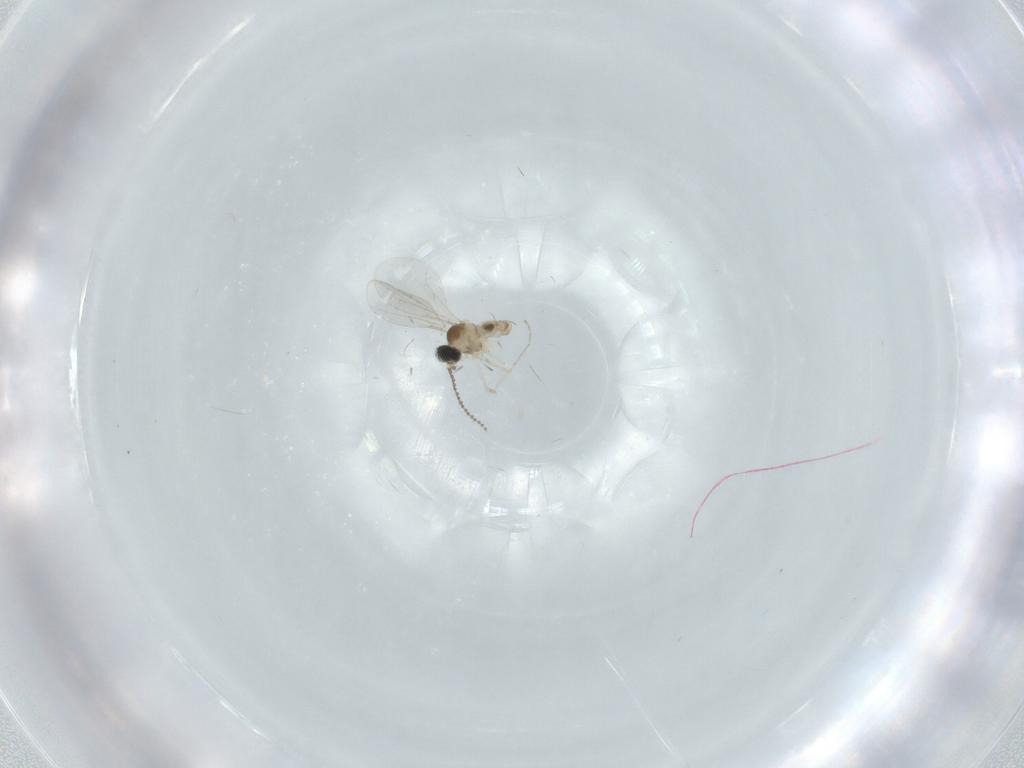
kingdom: Animalia
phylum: Arthropoda
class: Insecta
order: Diptera
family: Cecidomyiidae
